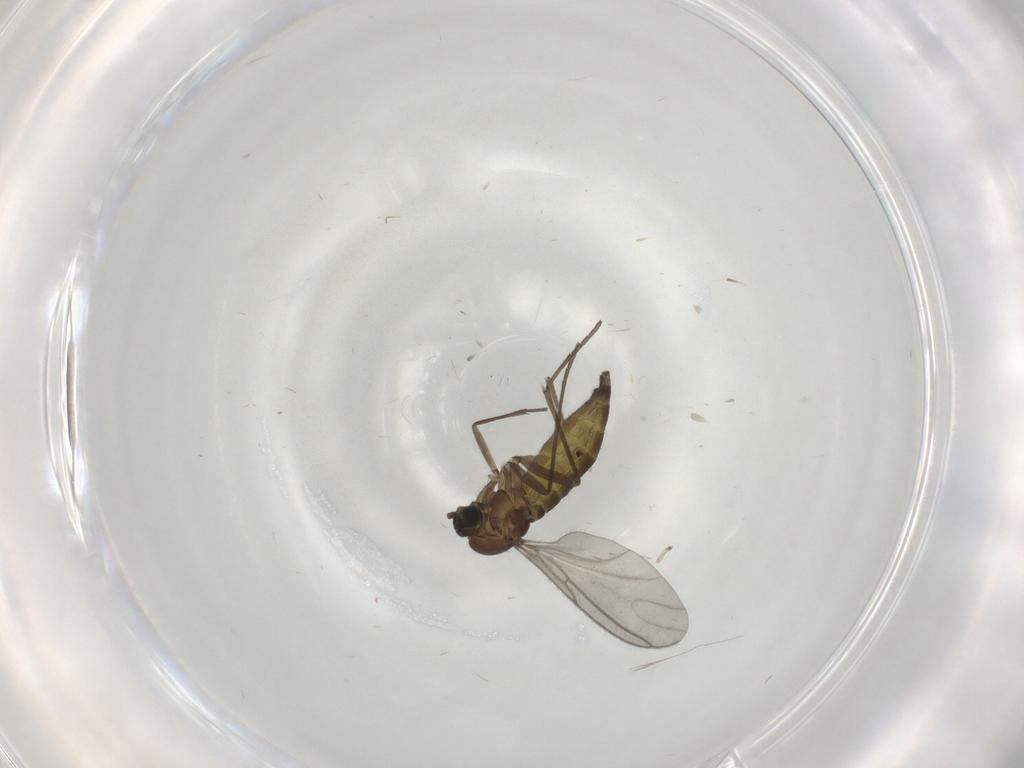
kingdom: Animalia
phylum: Arthropoda
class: Insecta
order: Diptera
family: Sciaridae
